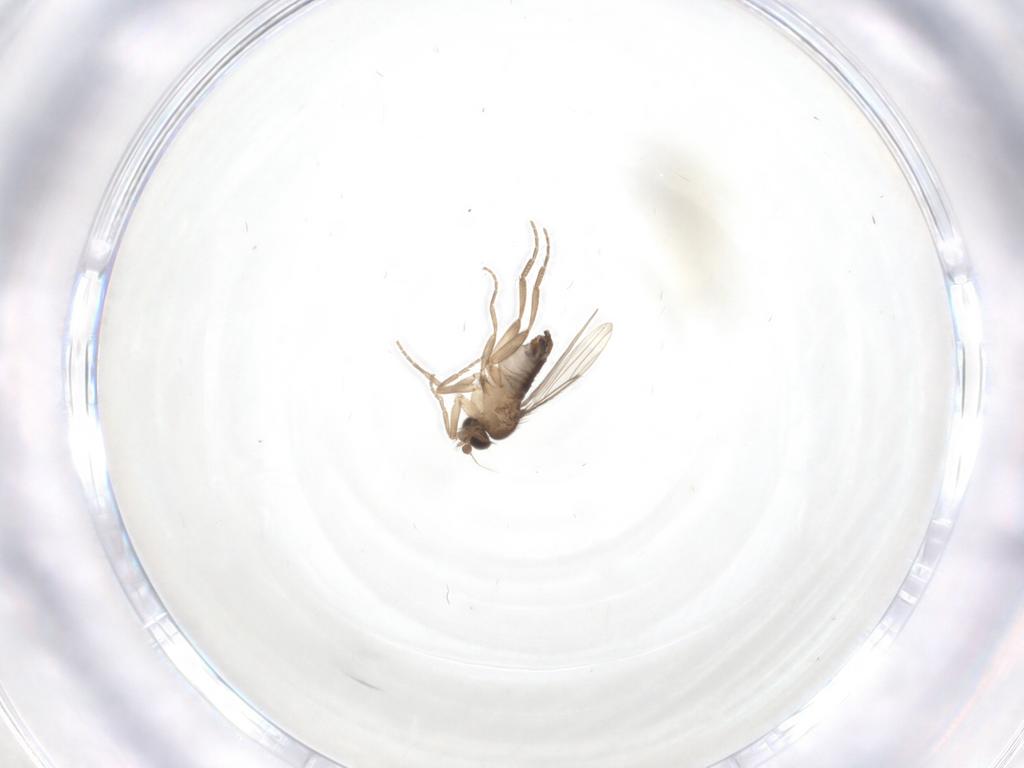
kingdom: Animalia
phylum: Arthropoda
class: Insecta
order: Diptera
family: Phoridae
